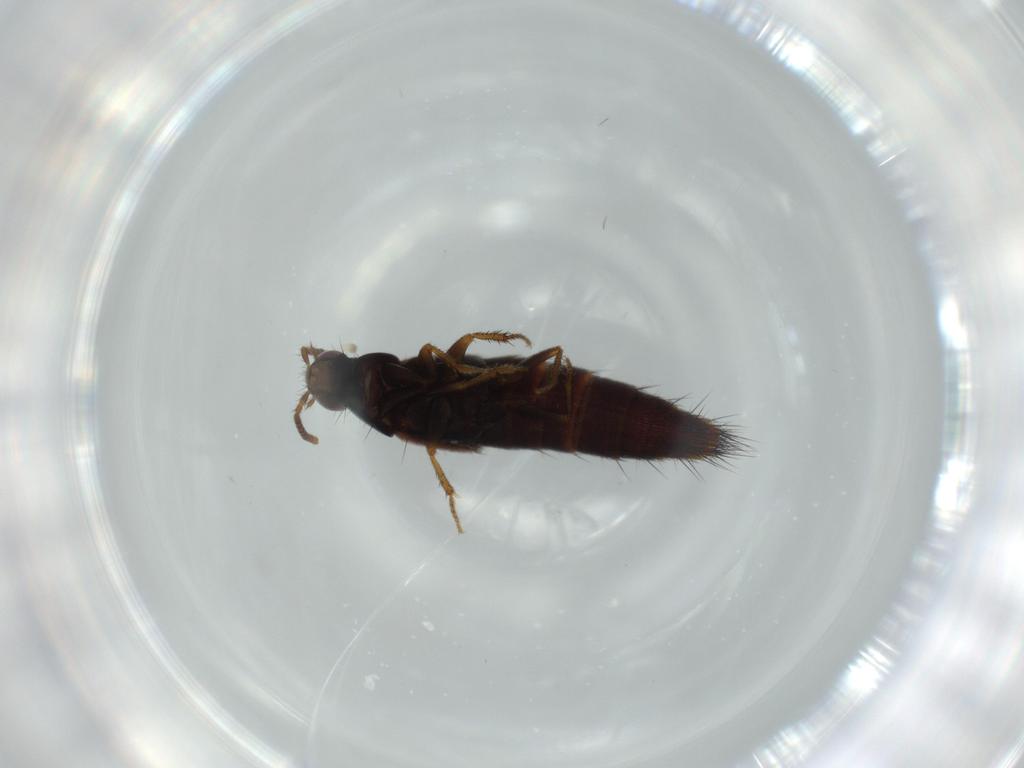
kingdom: Animalia
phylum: Arthropoda
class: Insecta
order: Coleoptera
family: Staphylinidae
